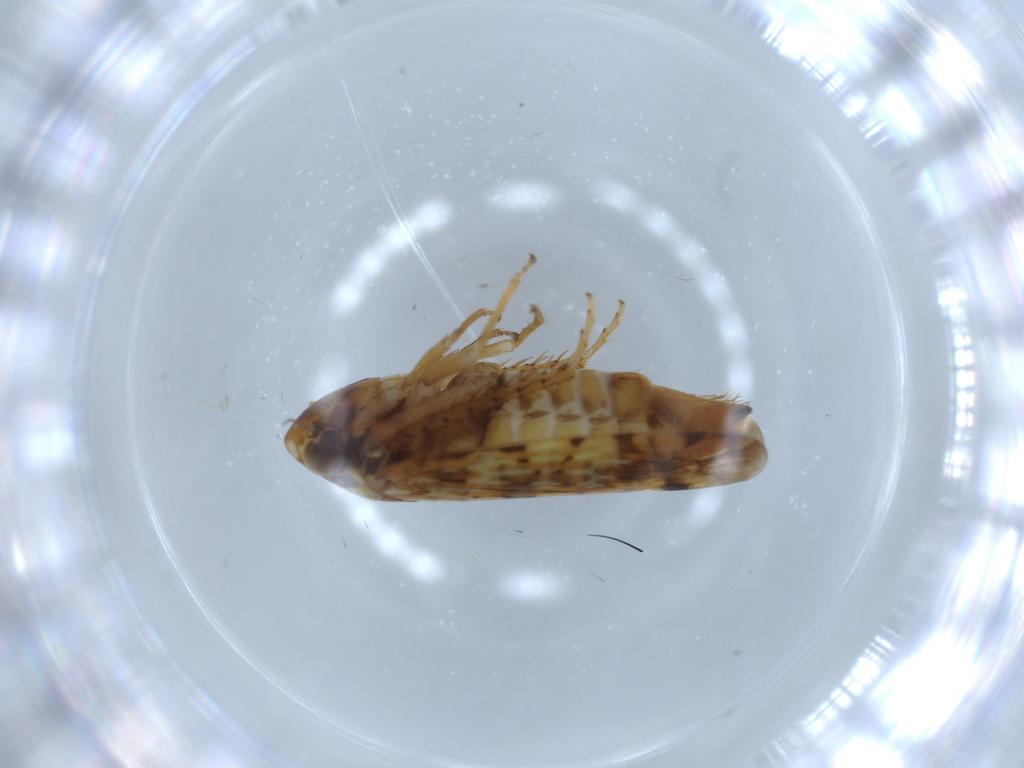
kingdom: Animalia
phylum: Arthropoda
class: Insecta
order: Hemiptera
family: Cicadellidae
